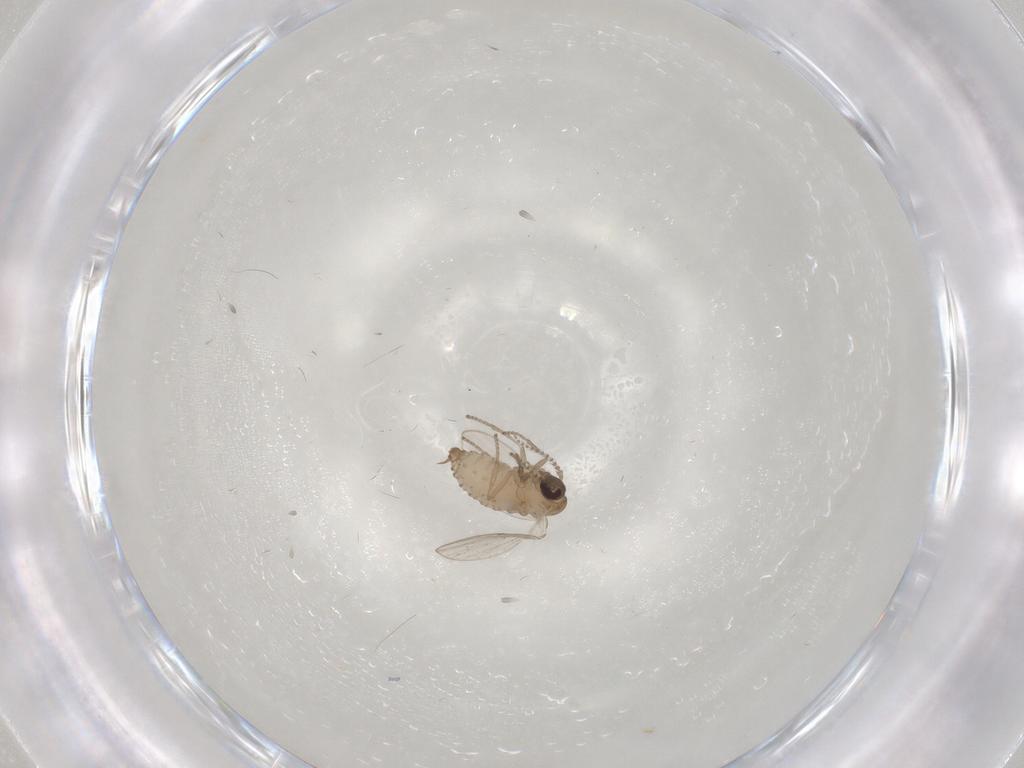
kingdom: Animalia
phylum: Arthropoda
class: Insecta
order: Diptera
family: Psychodidae
